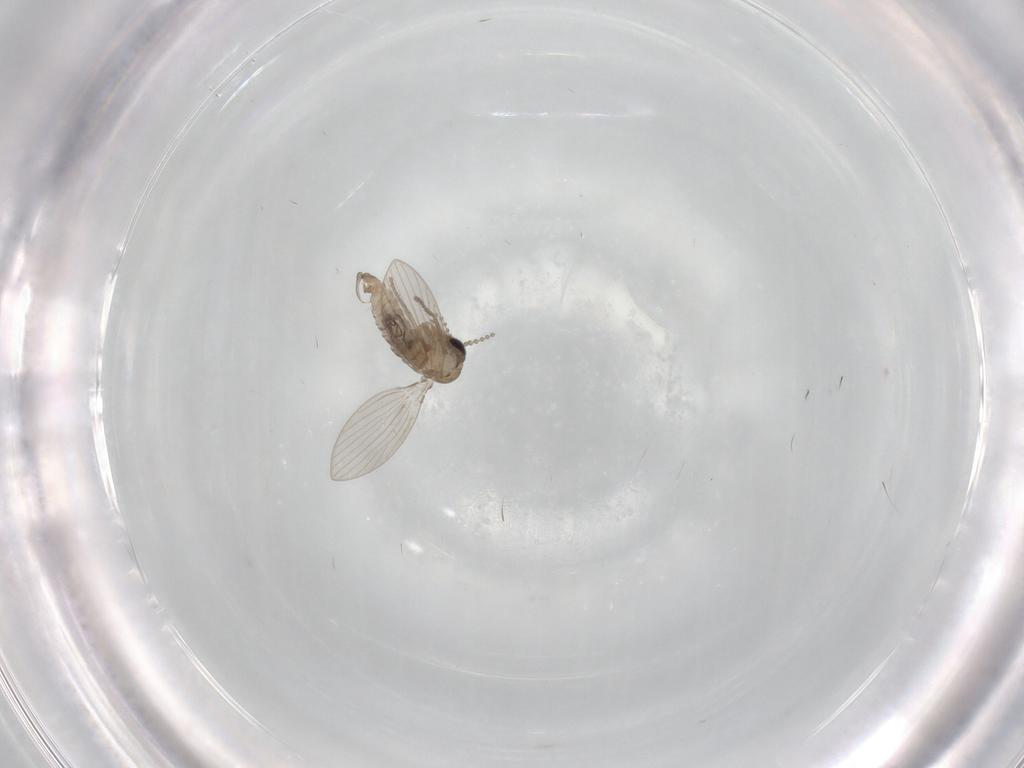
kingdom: Animalia
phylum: Arthropoda
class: Insecta
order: Diptera
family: Psychodidae
